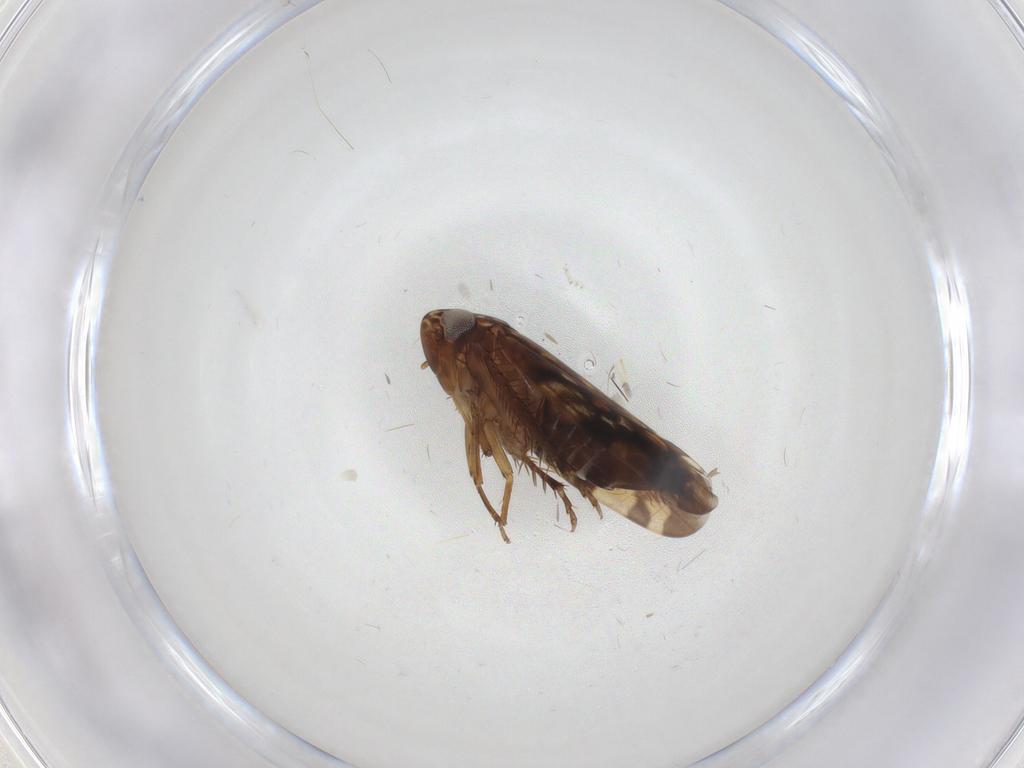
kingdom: Animalia
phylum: Arthropoda
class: Insecta
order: Hemiptera
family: Cicadellidae
